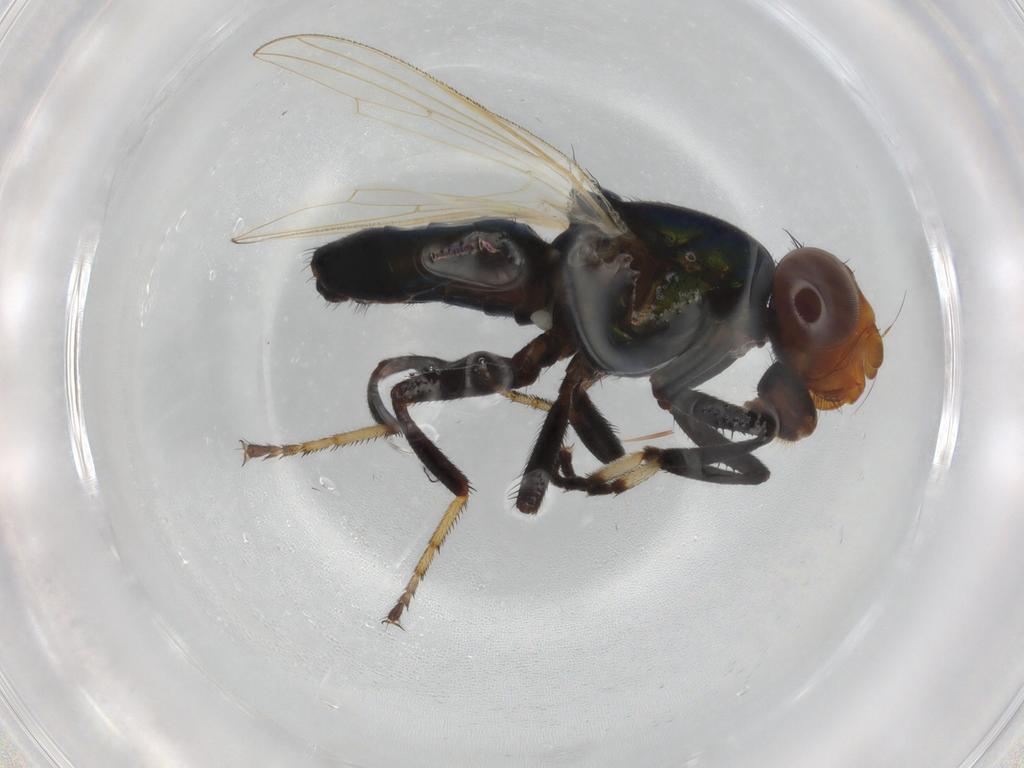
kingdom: Animalia
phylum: Arthropoda
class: Insecta
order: Diptera
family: Ulidiidae
